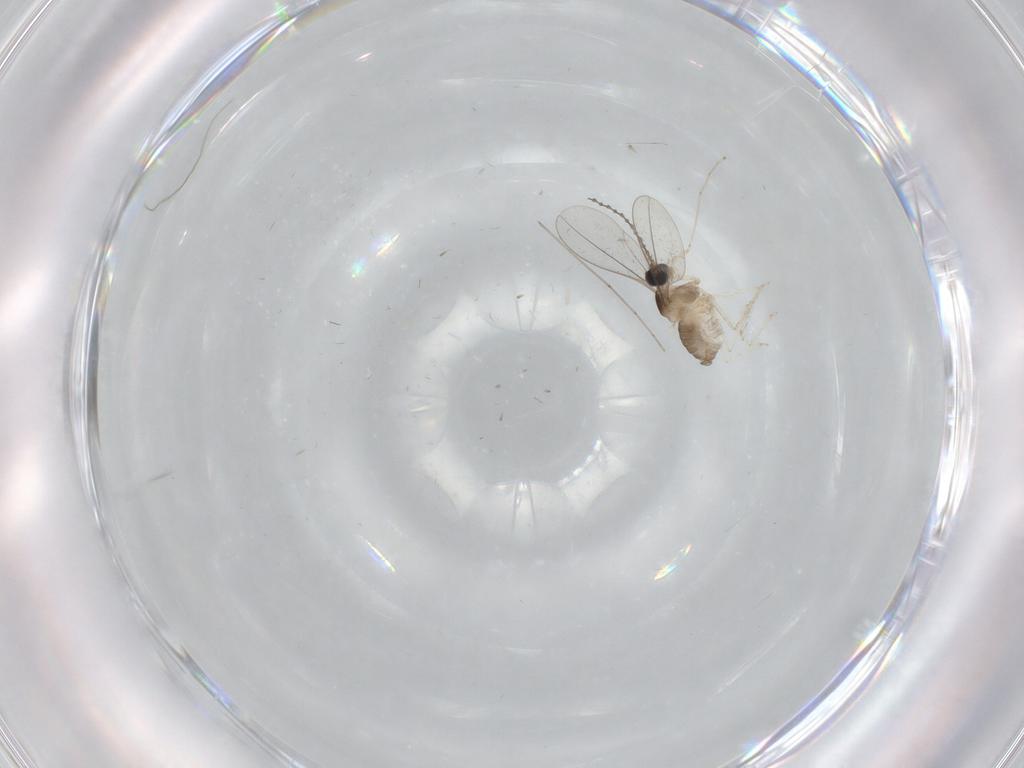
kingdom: Animalia
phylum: Arthropoda
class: Insecta
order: Diptera
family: Cecidomyiidae
